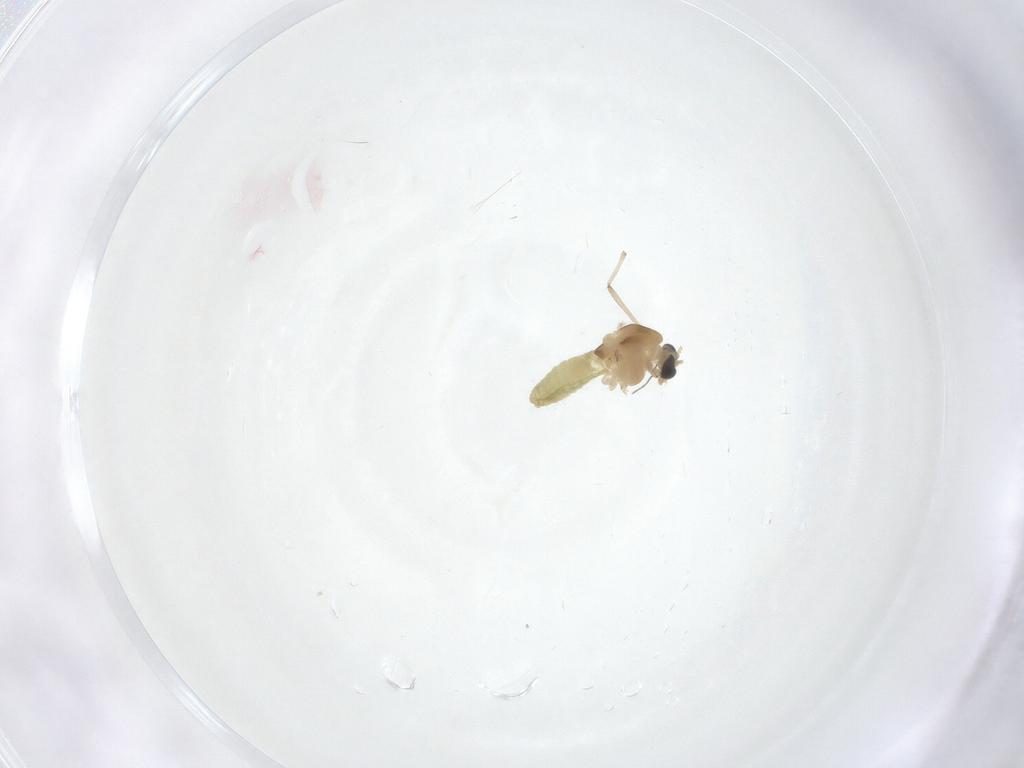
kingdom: Animalia
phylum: Arthropoda
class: Insecta
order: Diptera
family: Chironomidae
